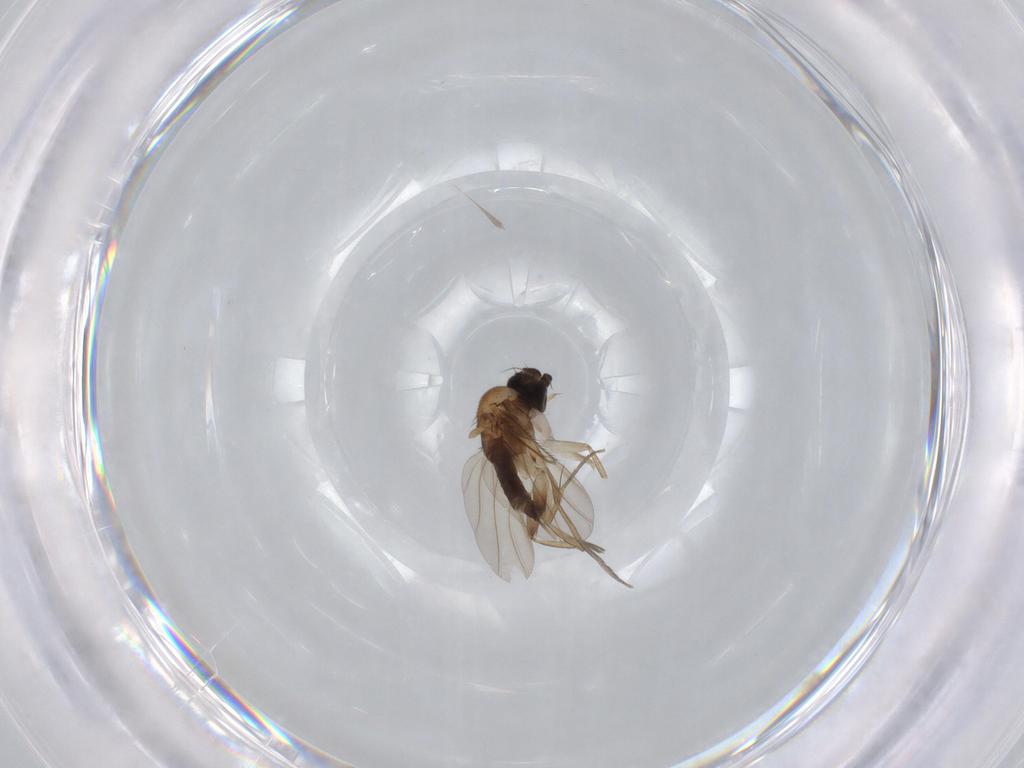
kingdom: Animalia
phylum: Arthropoda
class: Insecta
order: Diptera
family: Phoridae
